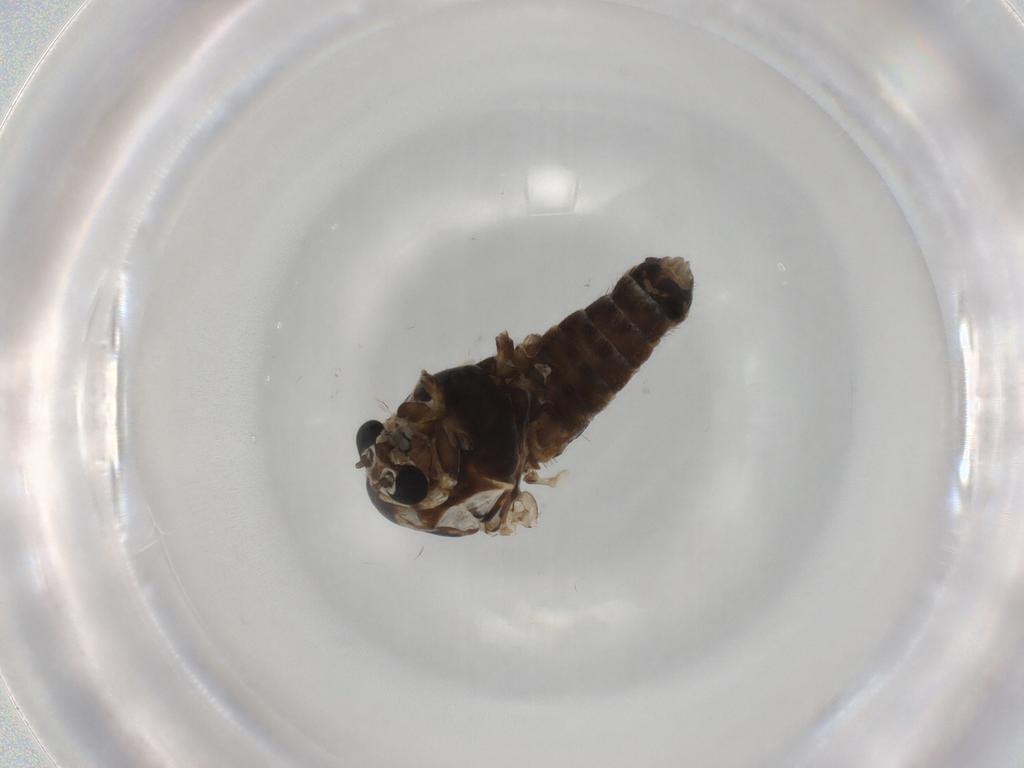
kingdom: Animalia
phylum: Arthropoda
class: Insecta
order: Diptera
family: Chironomidae
